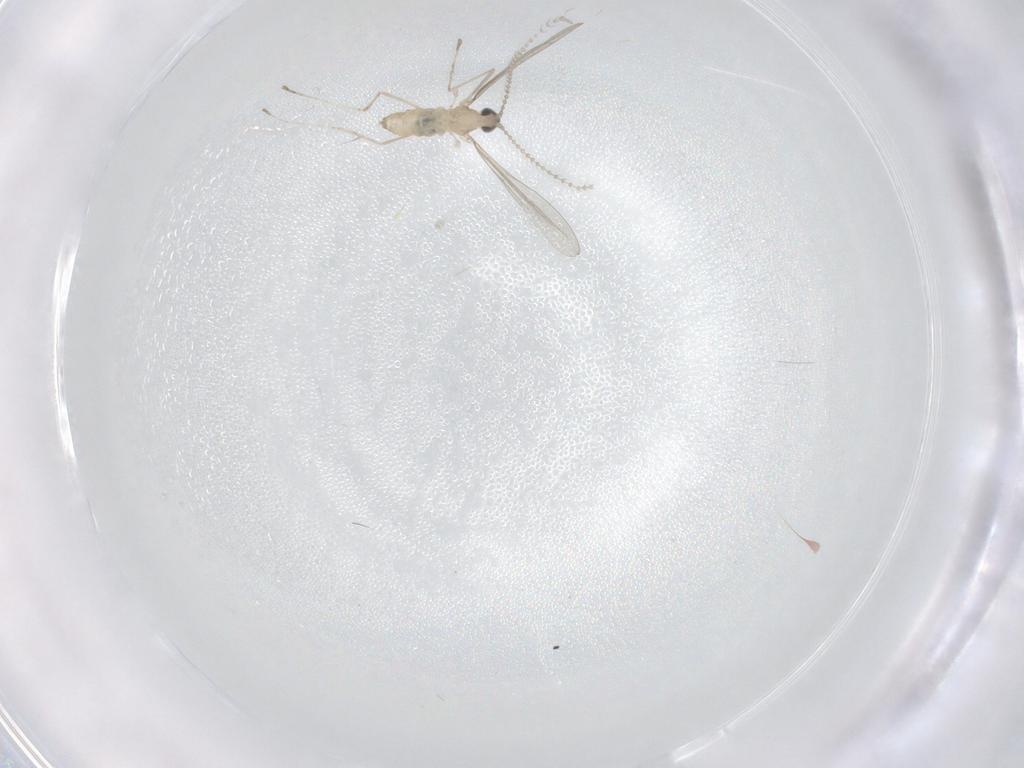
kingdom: Animalia
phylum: Arthropoda
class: Insecta
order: Diptera
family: Cecidomyiidae
